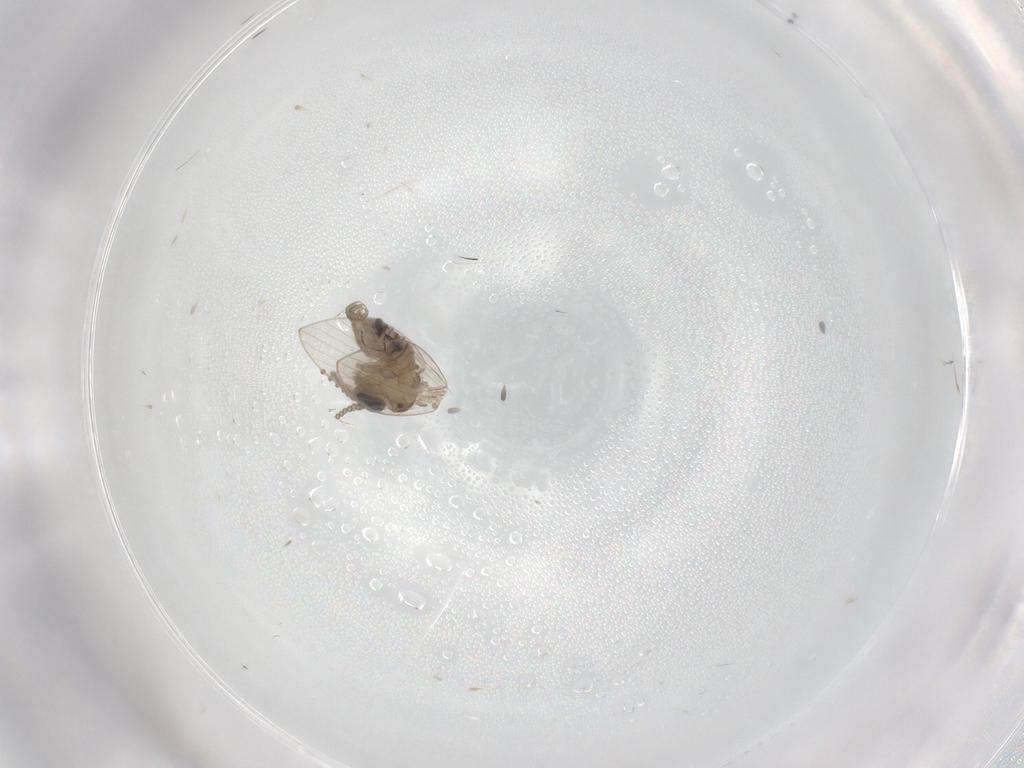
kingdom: Animalia
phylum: Arthropoda
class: Insecta
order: Diptera
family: Psychodidae
